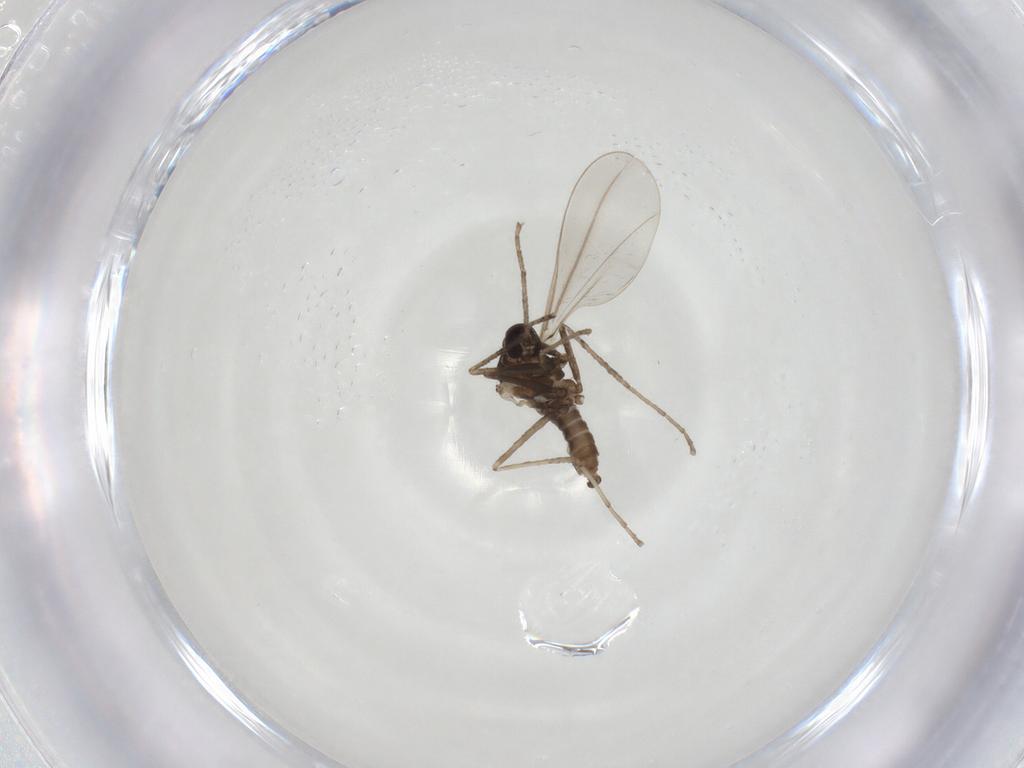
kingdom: Animalia
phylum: Arthropoda
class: Insecta
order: Diptera
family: Cecidomyiidae
